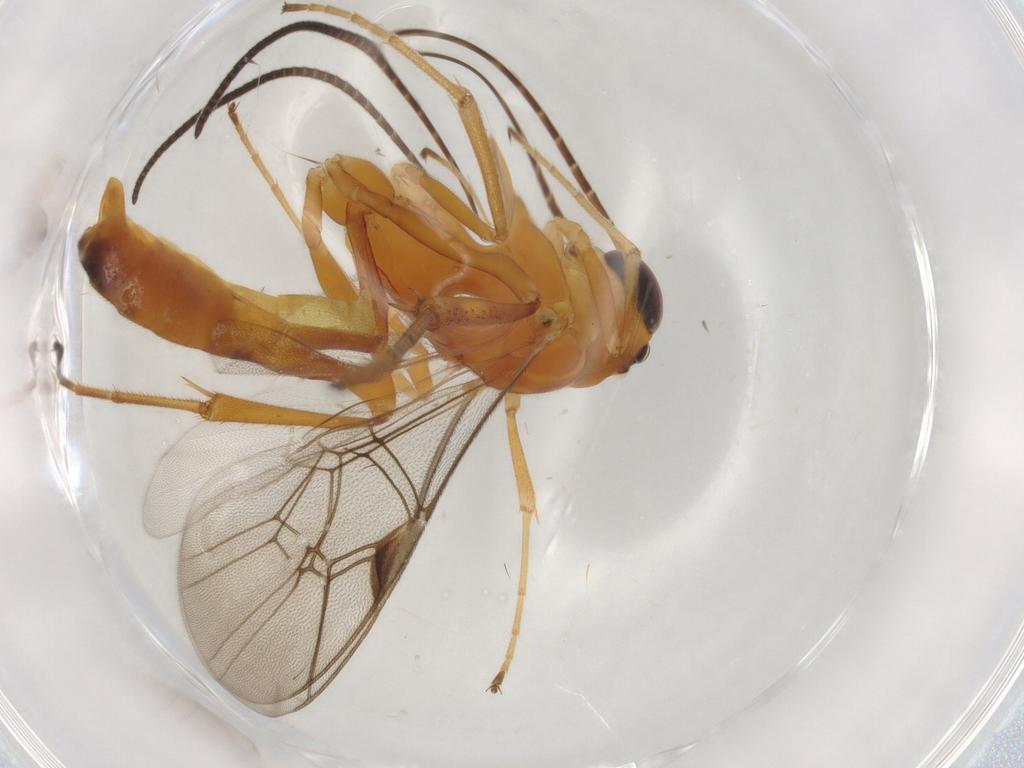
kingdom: Animalia
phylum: Arthropoda
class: Insecta
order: Hymenoptera
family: Ichneumonidae
